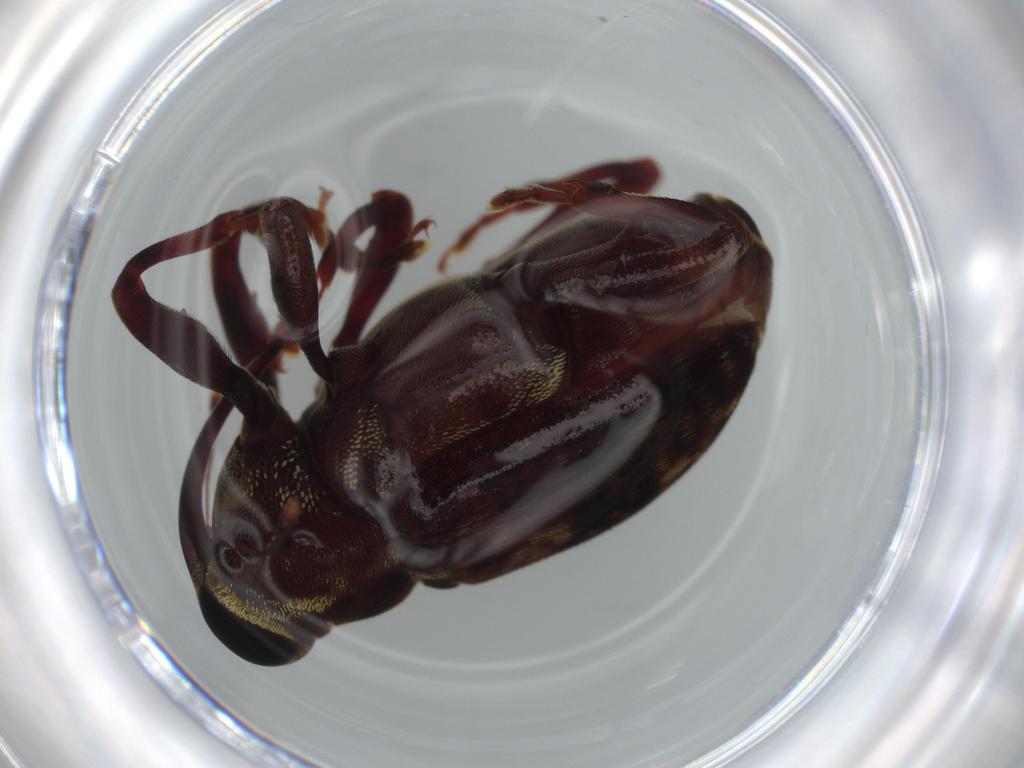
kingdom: Animalia
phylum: Arthropoda
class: Insecta
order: Coleoptera
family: Curculionidae
